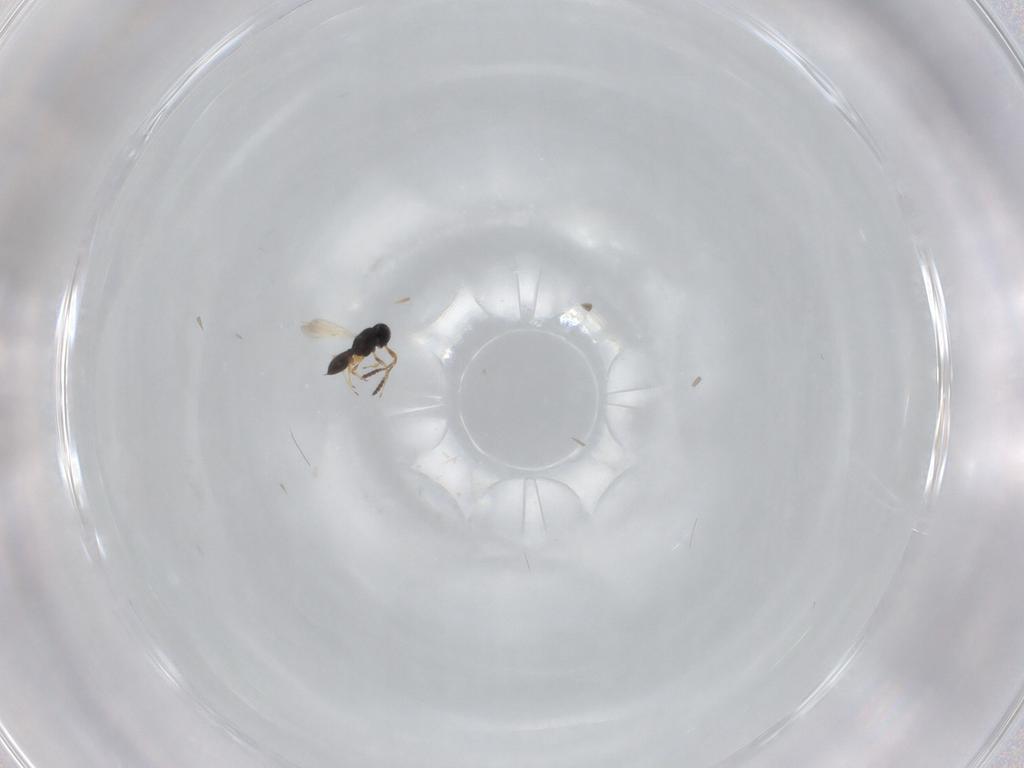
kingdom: Animalia
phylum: Arthropoda
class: Insecta
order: Hymenoptera
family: Scelionidae
